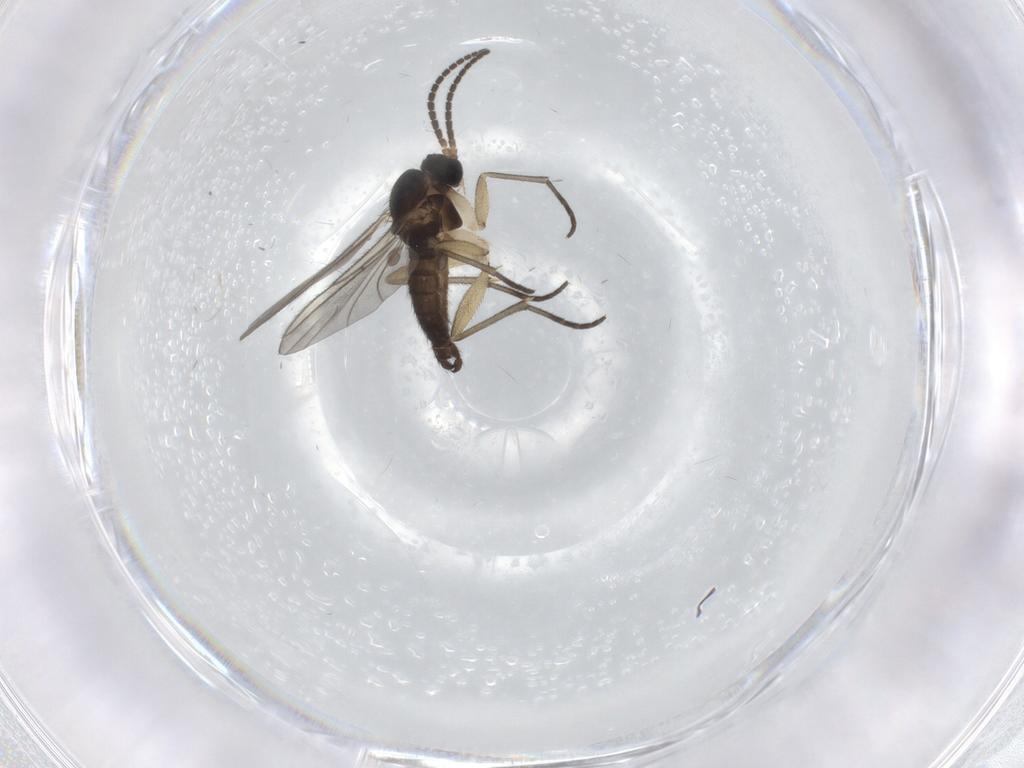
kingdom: Animalia
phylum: Arthropoda
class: Insecta
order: Diptera
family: Sciaridae
